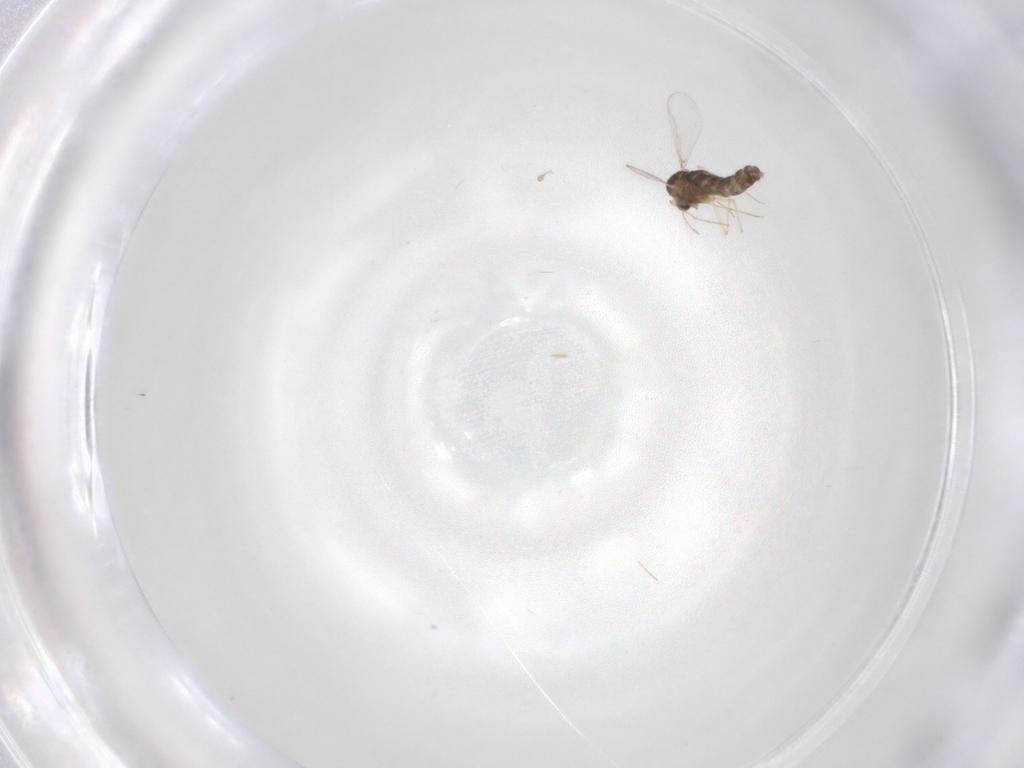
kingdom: Animalia
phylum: Arthropoda
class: Insecta
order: Diptera
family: Chironomidae
